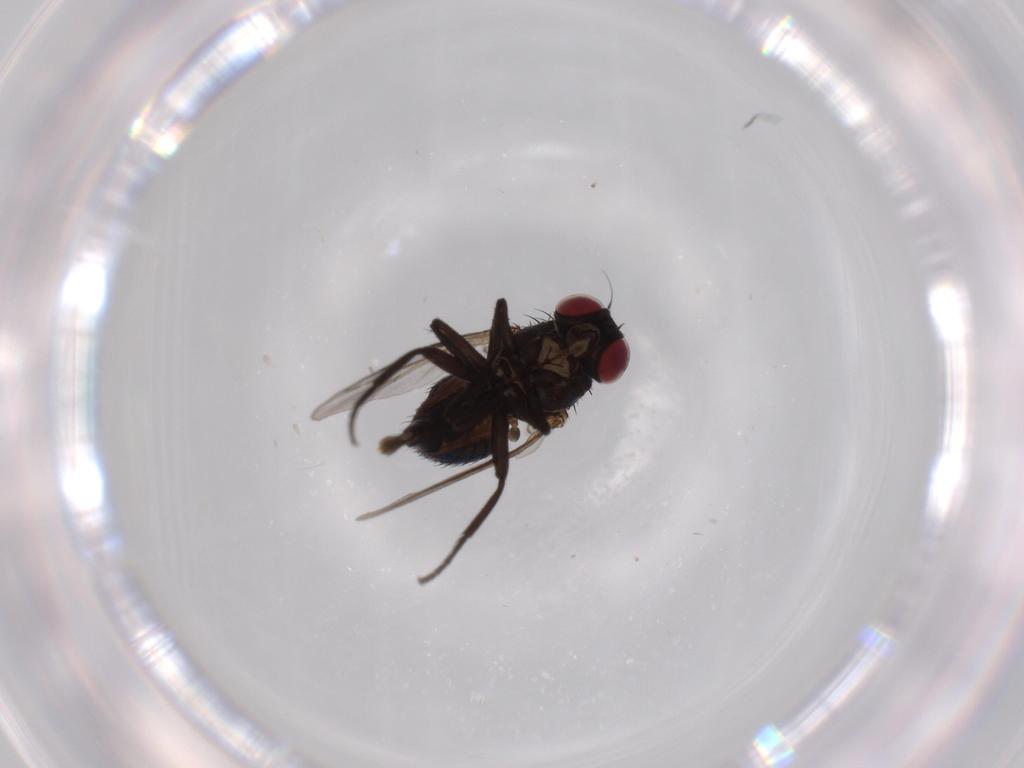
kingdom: Animalia
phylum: Arthropoda
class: Insecta
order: Diptera
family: Agromyzidae
